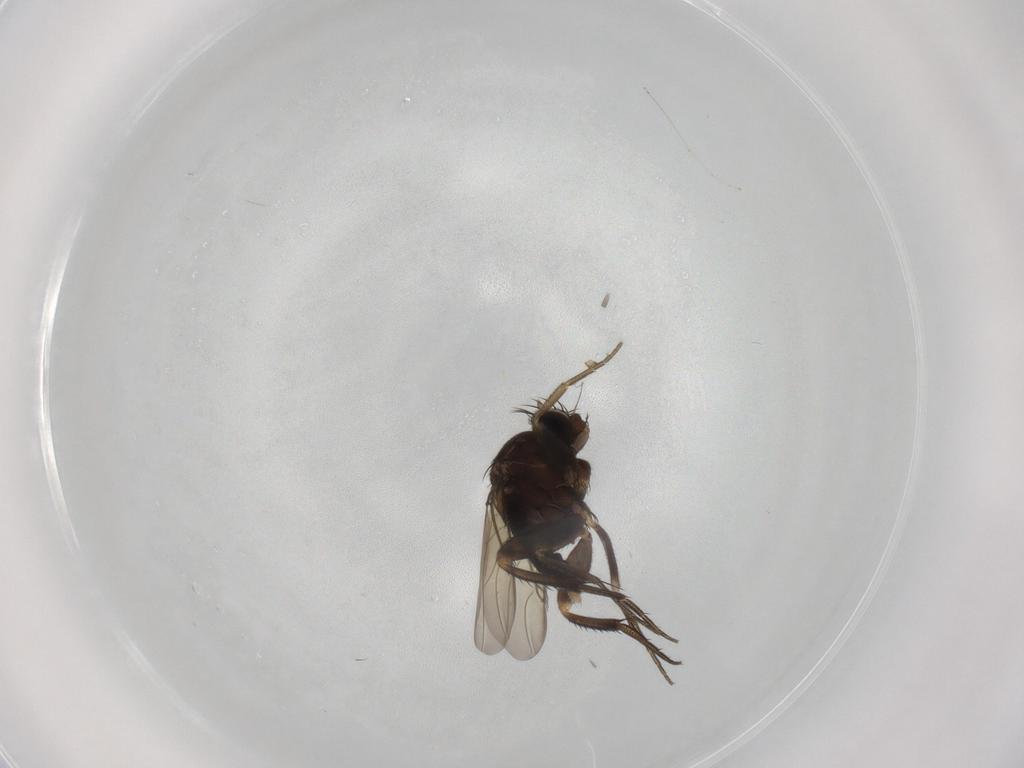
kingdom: Animalia
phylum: Arthropoda
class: Insecta
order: Diptera
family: Phoridae
